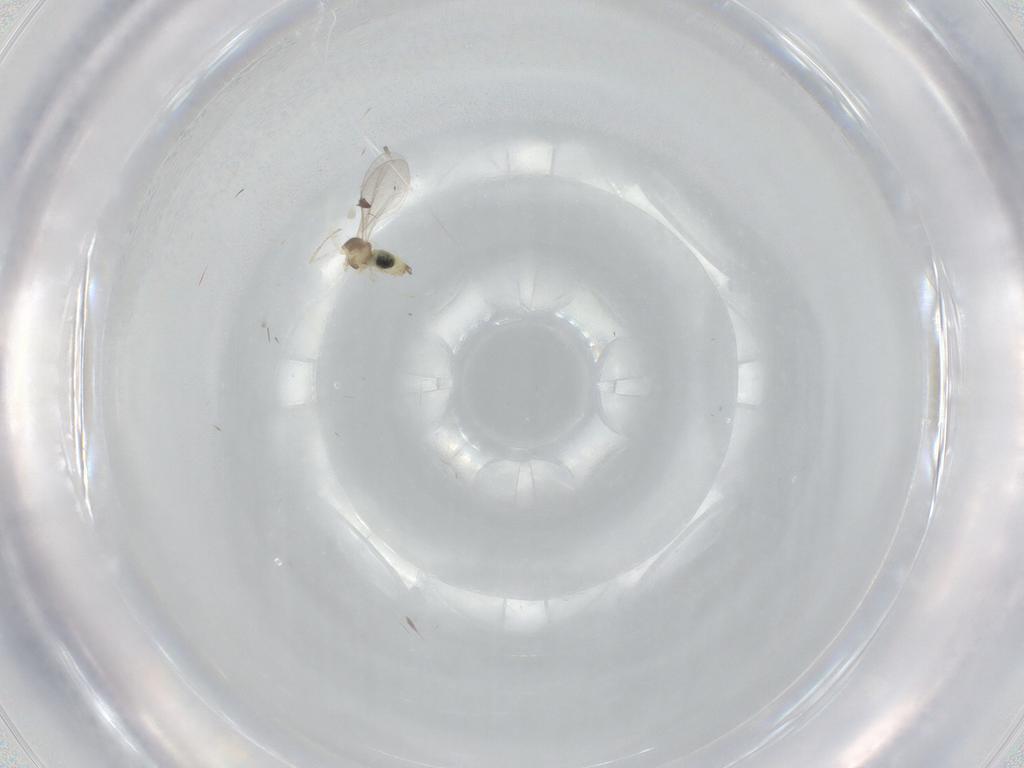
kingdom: Animalia
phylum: Arthropoda
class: Insecta
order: Diptera
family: Cecidomyiidae
